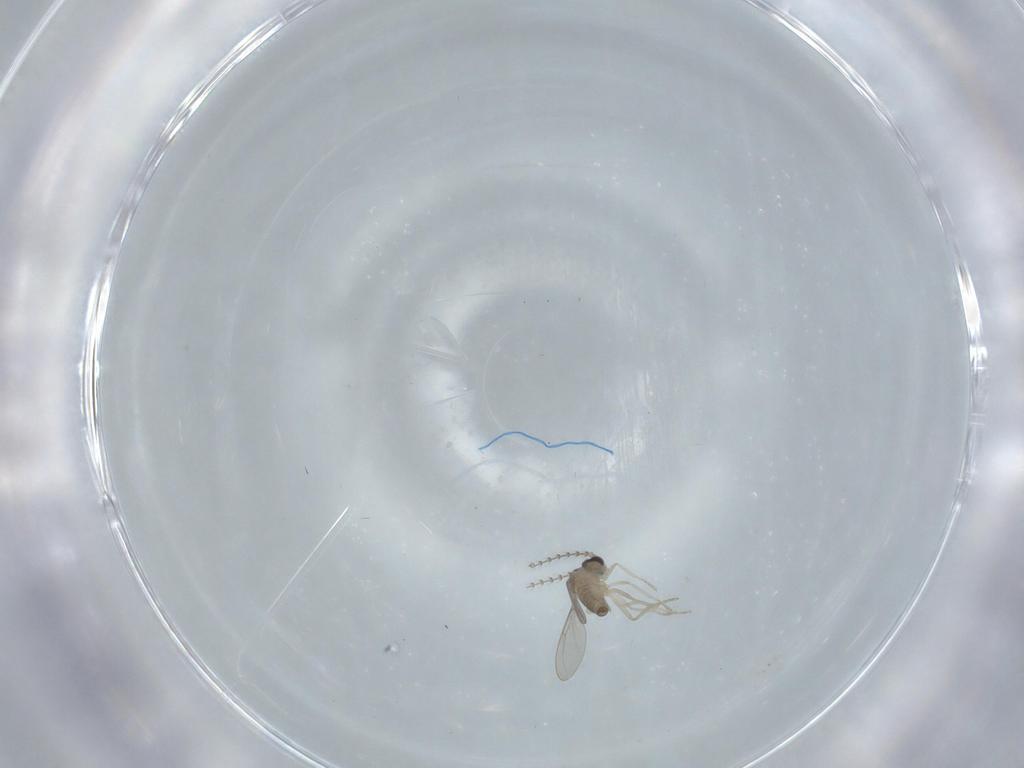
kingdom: Animalia
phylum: Arthropoda
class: Insecta
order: Diptera
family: Cecidomyiidae
